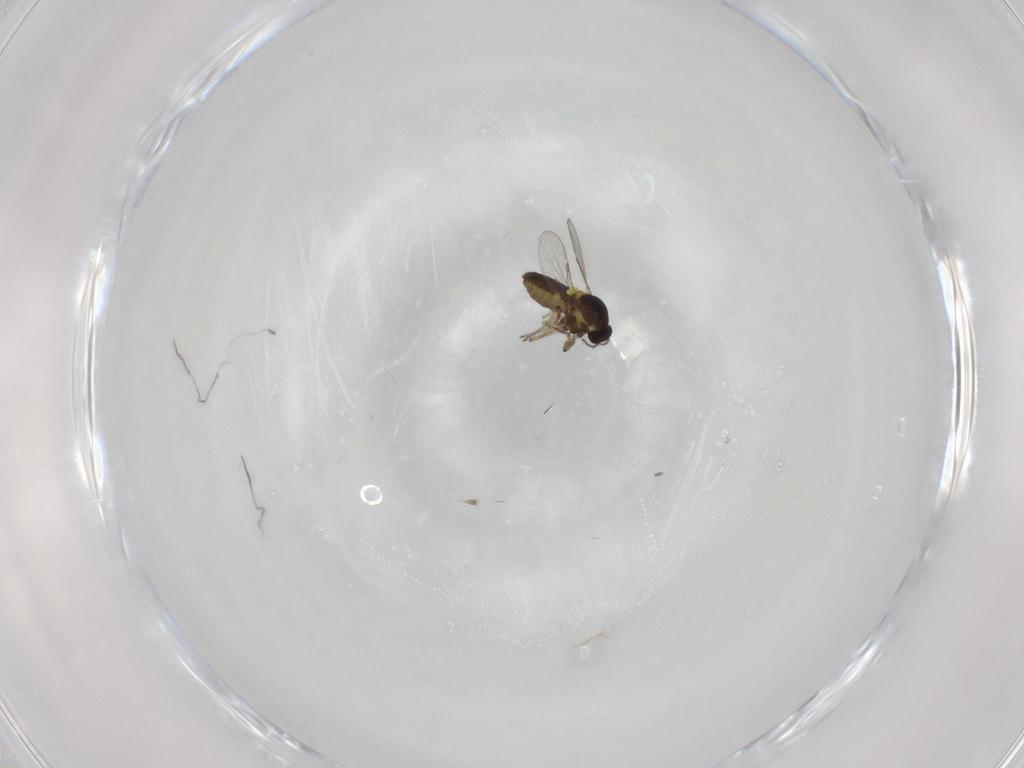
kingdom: Animalia
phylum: Arthropoda
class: Insecta
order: Diptera
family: Ceratopogonidae
